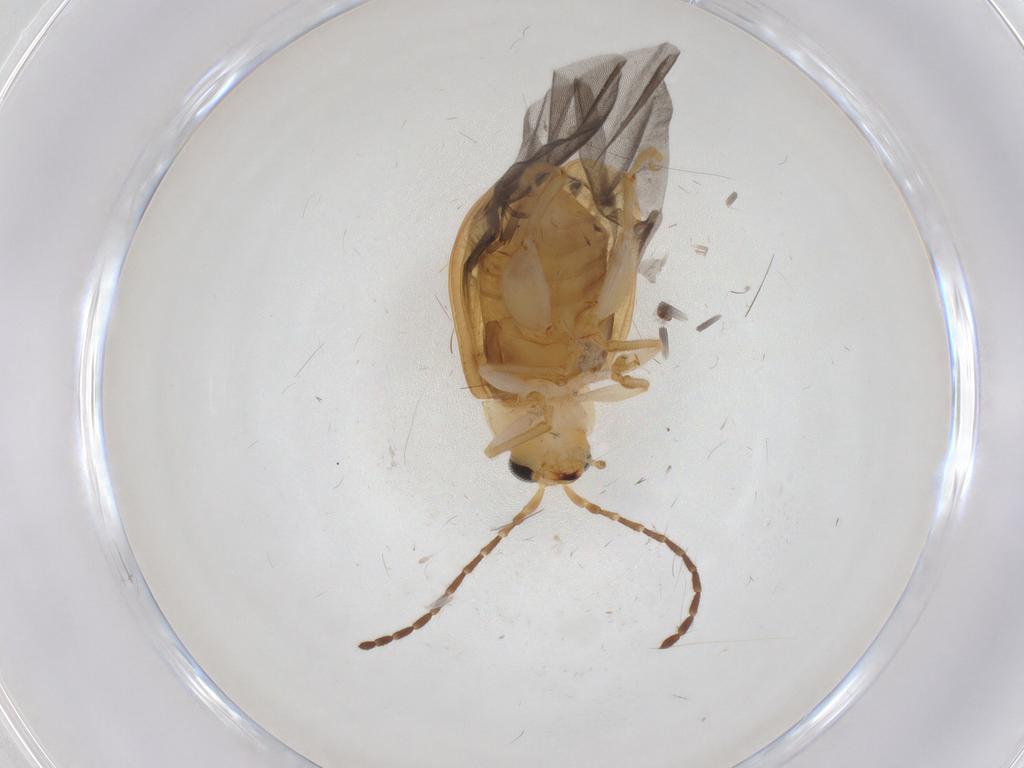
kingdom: Animalia
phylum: Arthropoda
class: Insecta
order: Coleoptera
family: Chrysomelidae
